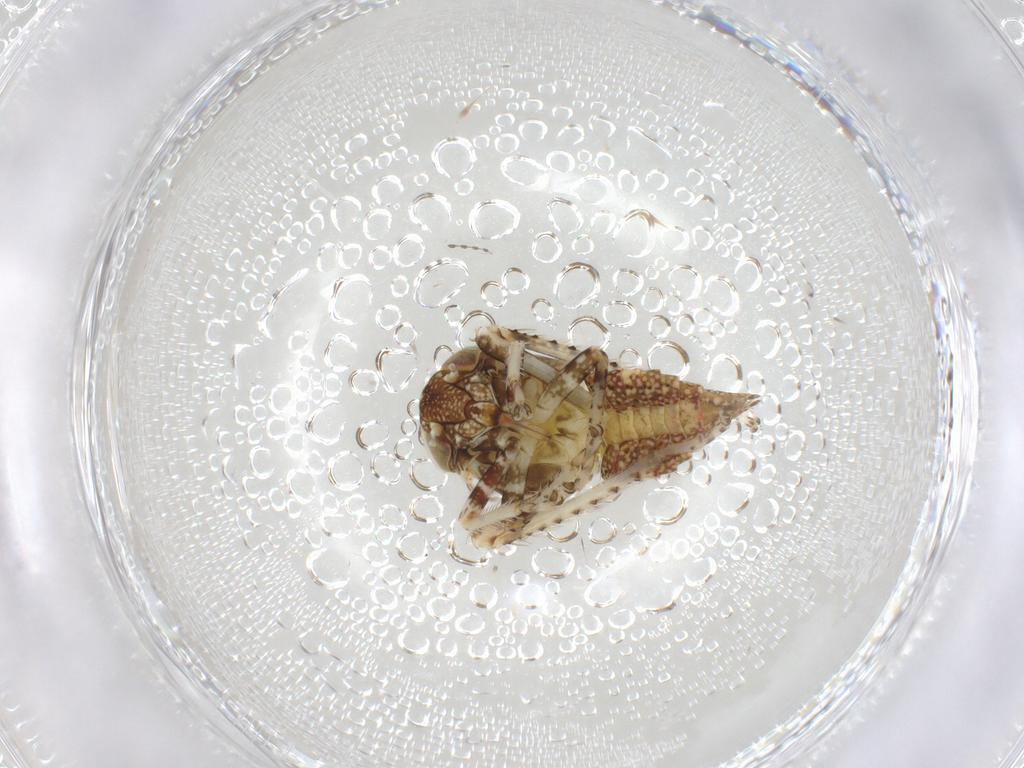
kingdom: Animalia
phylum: Arthropoda
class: Insecta
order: Hemiptera
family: Cicadellidae
